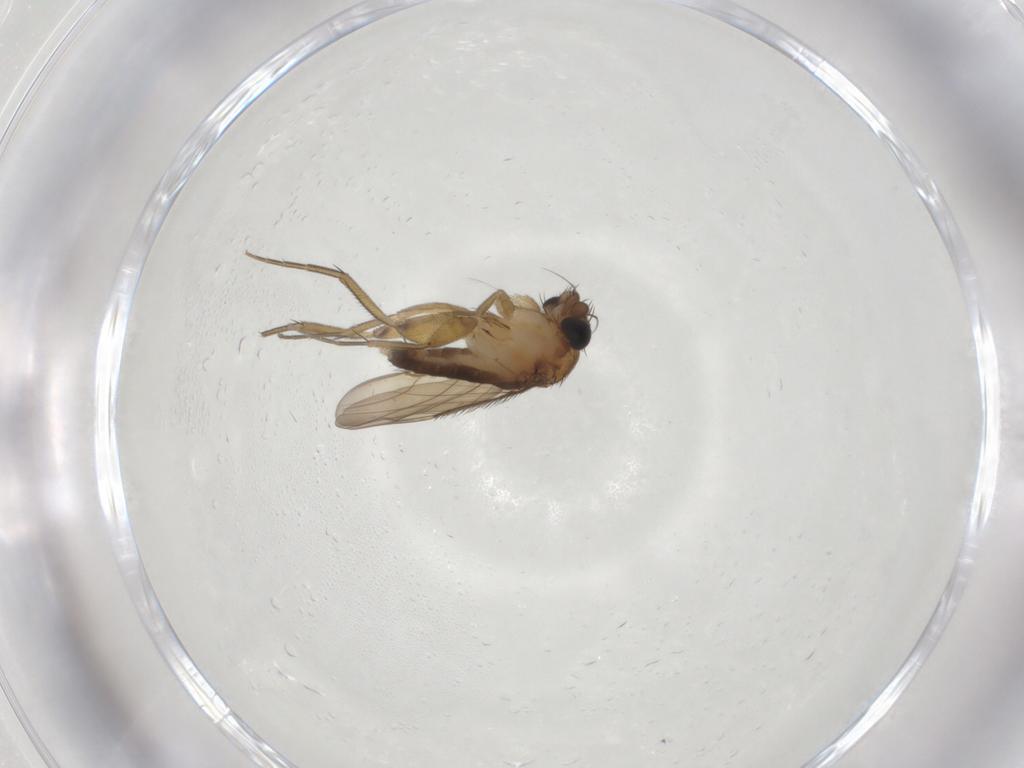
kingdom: Animalia
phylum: Arthropoda
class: Insecta
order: Diptera
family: Phoridae
